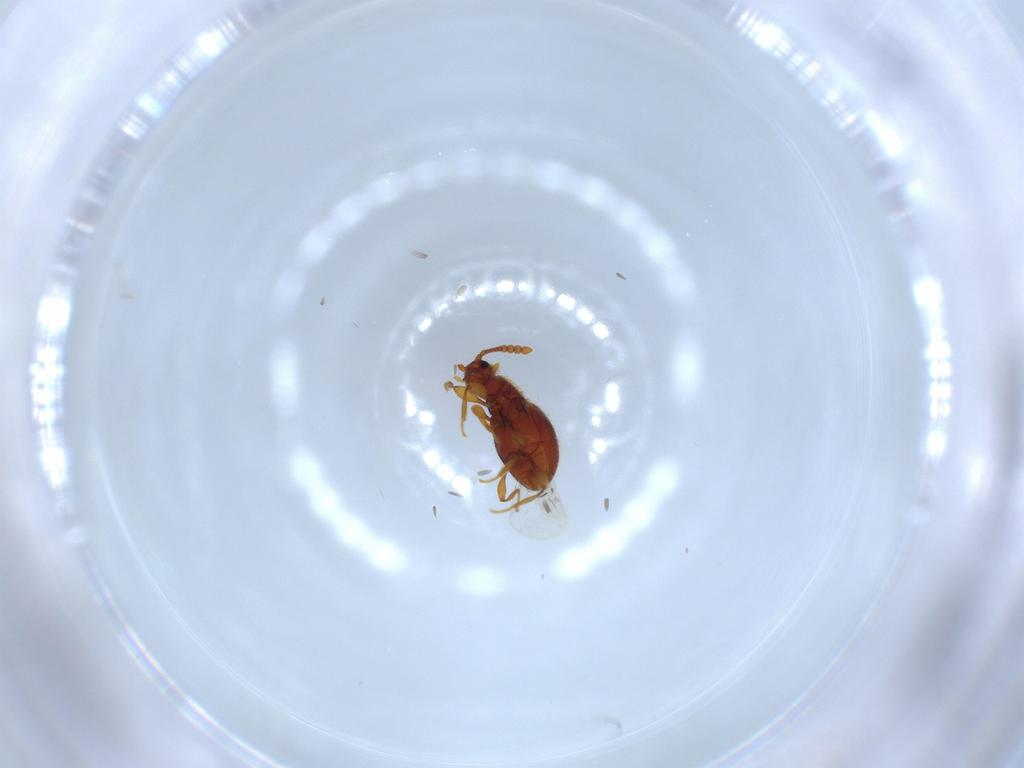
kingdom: Animalia
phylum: Arthropoda
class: Insecta
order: Coleoptera
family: Staphylinidae
